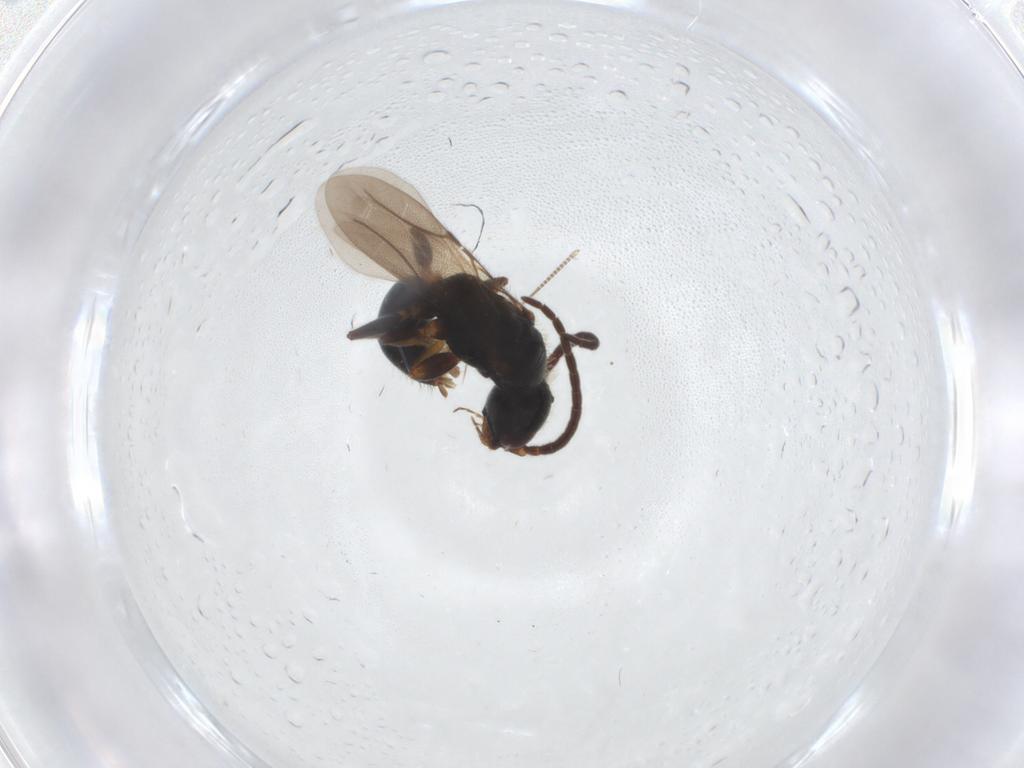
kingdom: Animalia
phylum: Arthropoda
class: Insecta
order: Hymenoptera
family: Bethylidae
